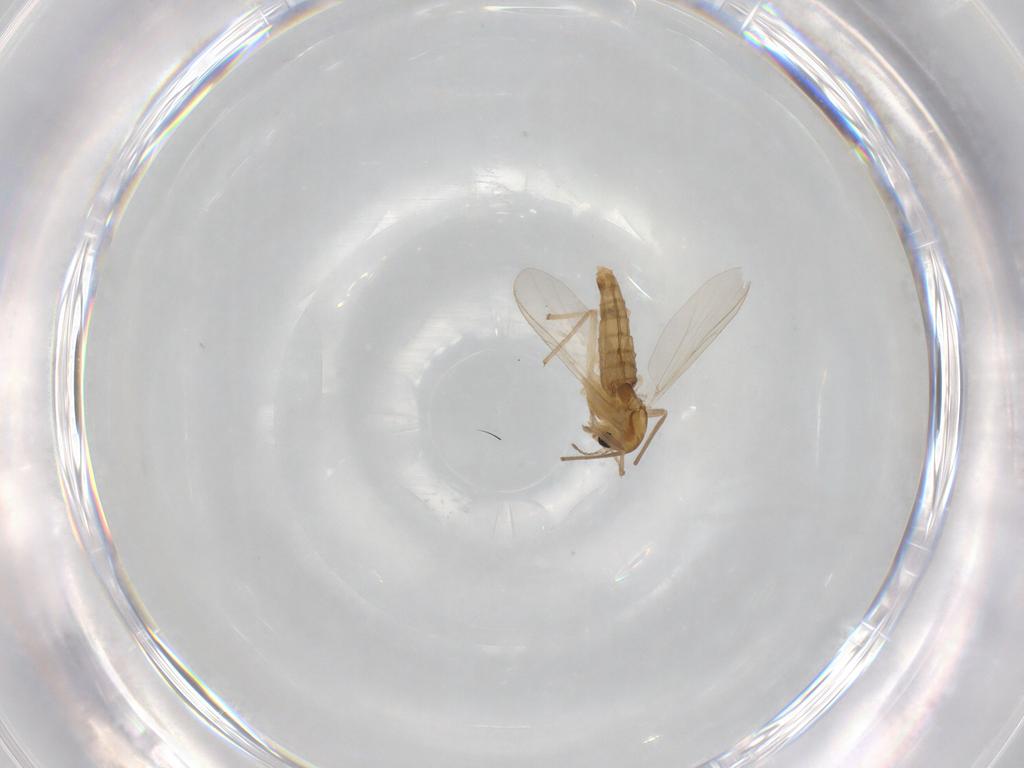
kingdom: Animalia
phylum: Arthropoda
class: Insecta
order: Diptera
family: Chironomidae
